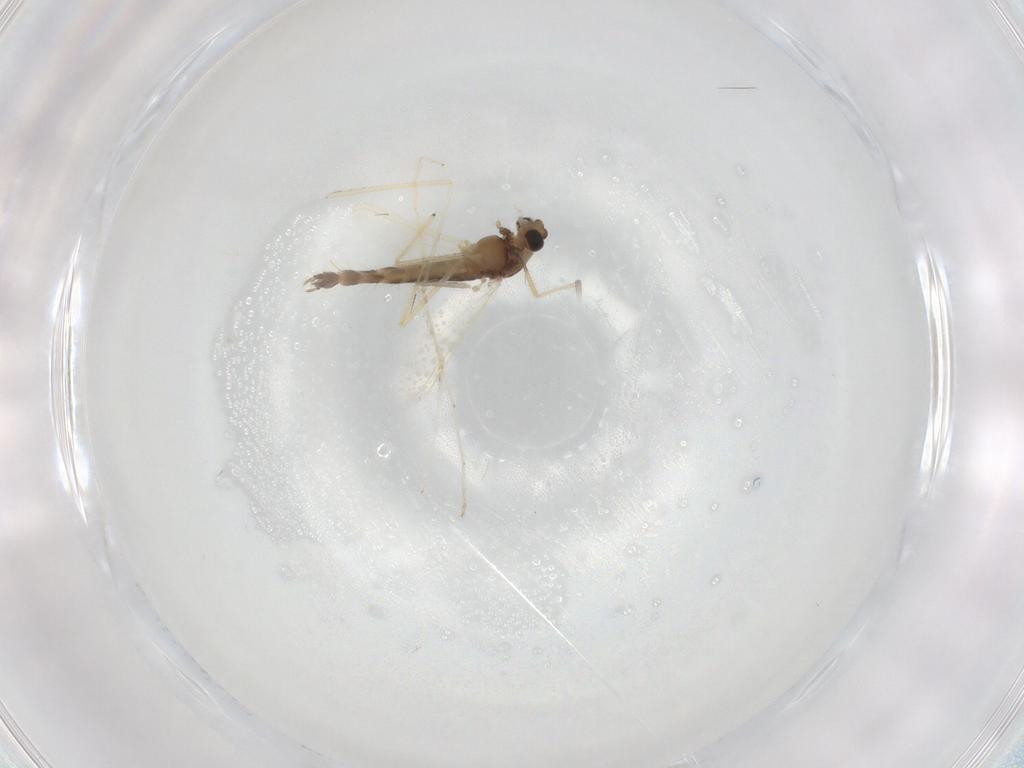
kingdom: Animalia
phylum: Arthropoda
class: Insecta
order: Diptera
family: Chironomidae
